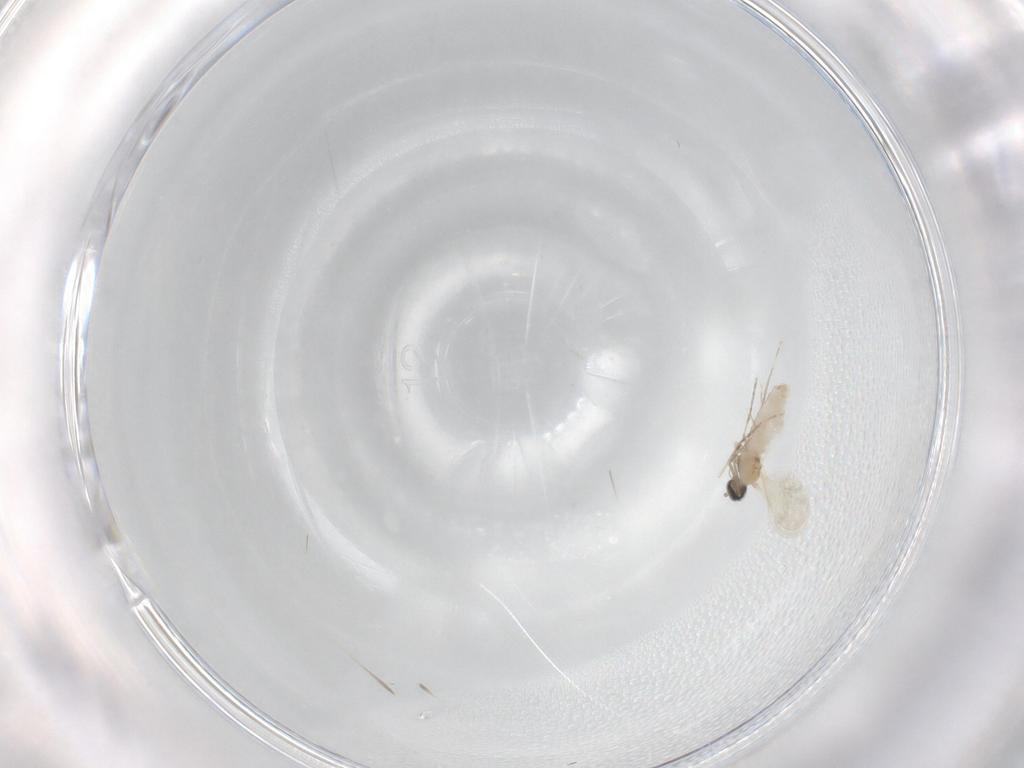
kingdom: Animalia
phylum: Arthropoda
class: Insecta
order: Diptera
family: Cecidomyiidae
